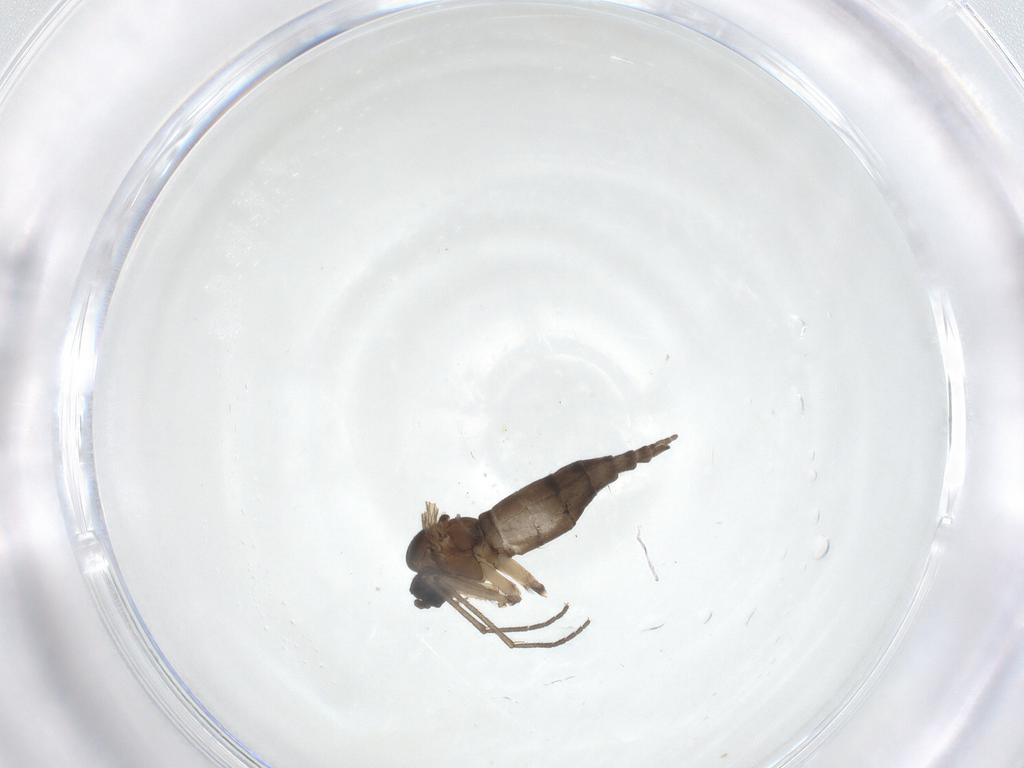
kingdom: Animalia
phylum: Arthropoda
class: Insecta
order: Diptera
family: Sciaridae
